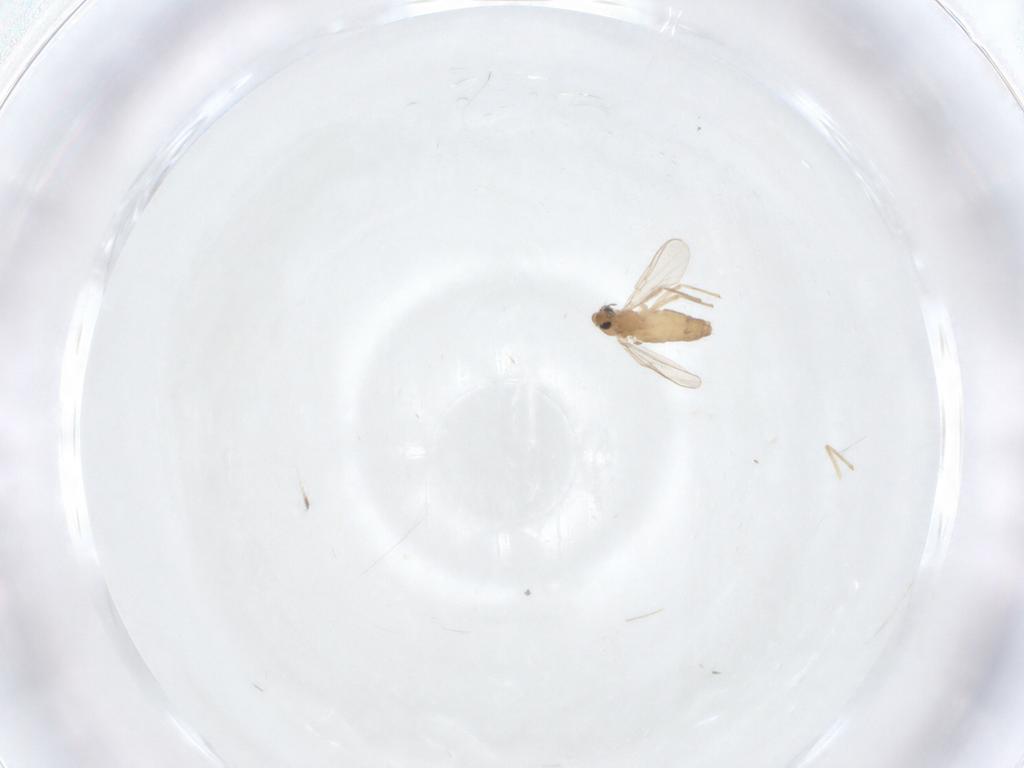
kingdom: Animalia
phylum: Arthropoda
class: Insecta
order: Diptera
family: Chironomidae
